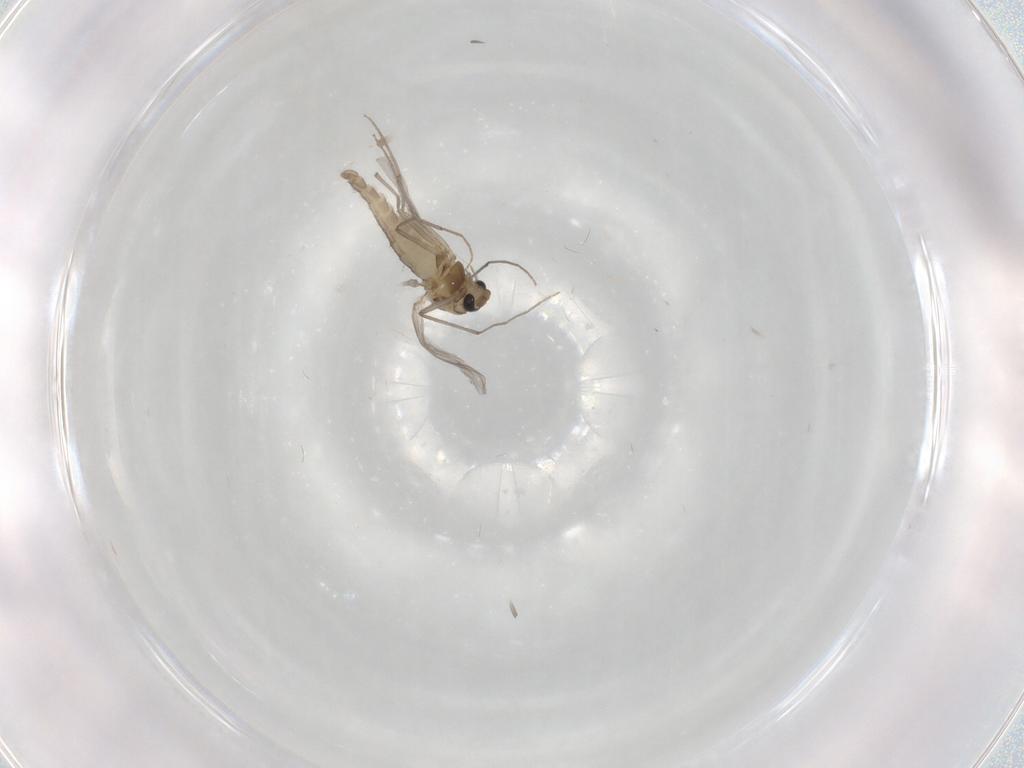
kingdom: Animalia
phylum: Arthropoda
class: Insecta
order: Diptera
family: Chironomidae
